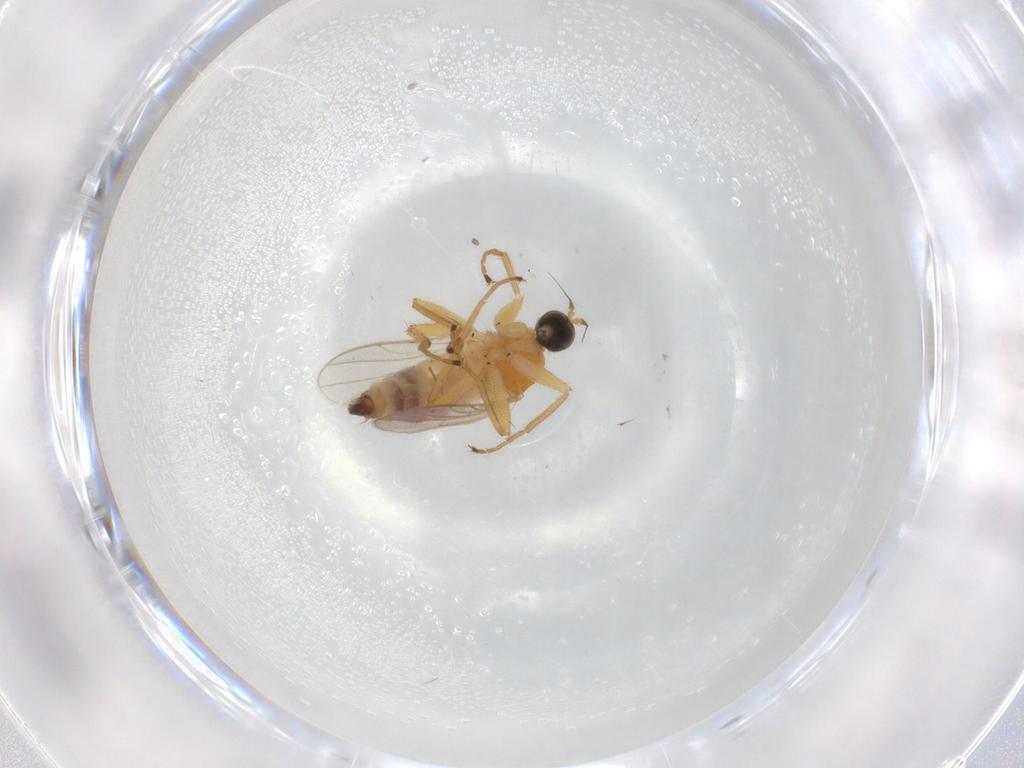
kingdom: Animalia
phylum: Arthropoda
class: Insecta
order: Diptera
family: Hybotidae
